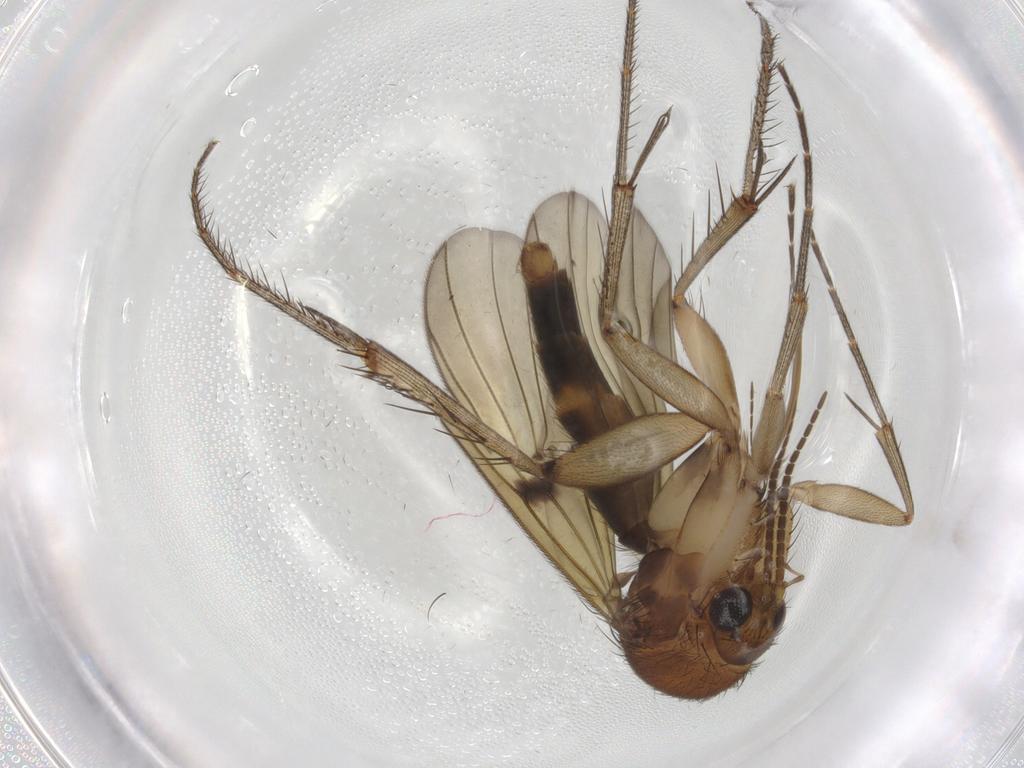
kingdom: Animalia
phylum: Arthropoda
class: Insecta
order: Diptera
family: Mycetophilidae
